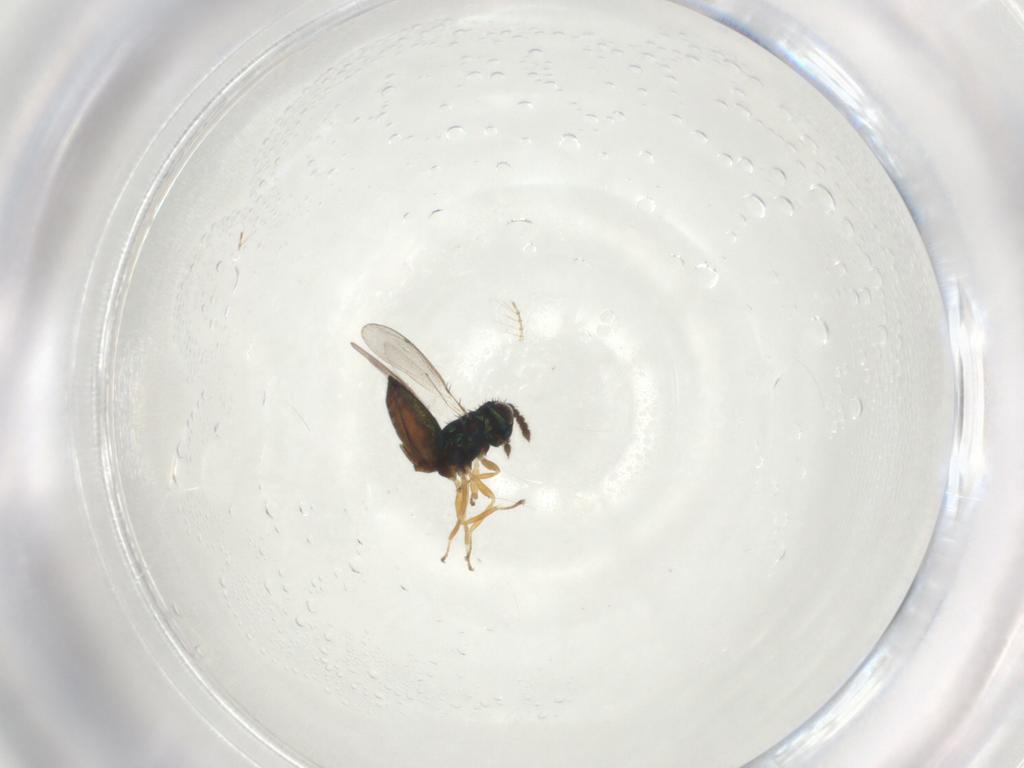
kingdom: Animalia
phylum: Arthropoda
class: Insecta
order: Hymenoptera
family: Eulophidae
